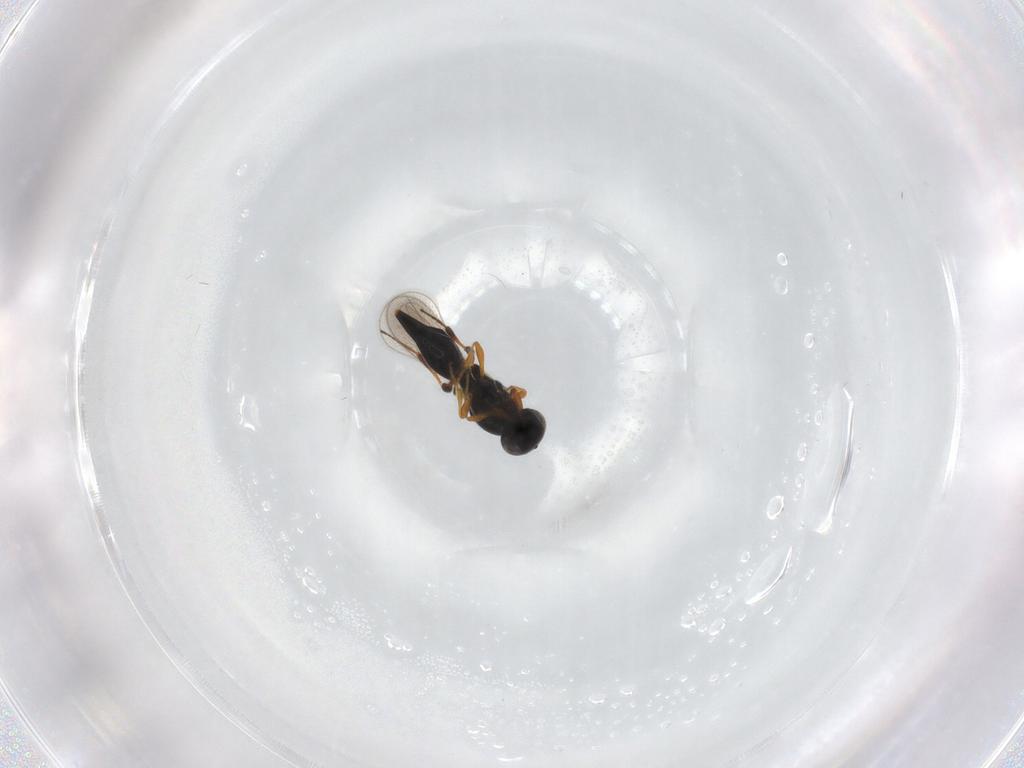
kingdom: Animalia
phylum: Arthropoda
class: Insecta
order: Hymenoptera
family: Platygastridae
